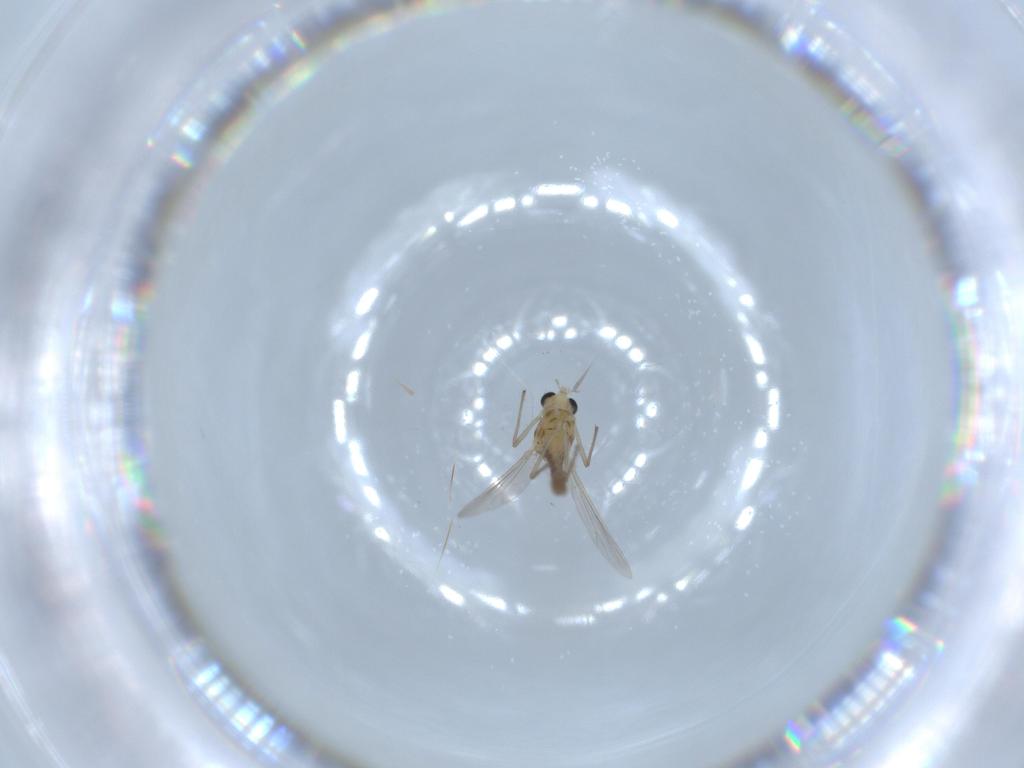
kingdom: Animalia
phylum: Arthropoda
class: Insecta
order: Diptera
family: Chironomidae
